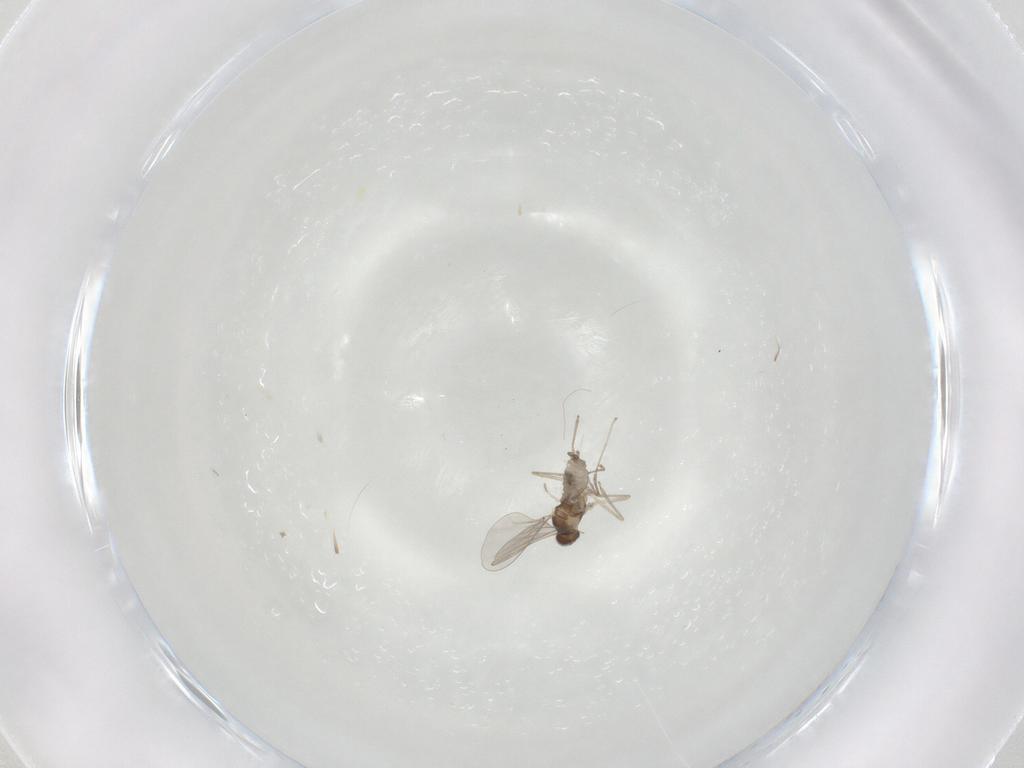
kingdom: Animalia
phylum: Arthropoda
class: Insecta
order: Diptera
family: Cecidomyiidae
